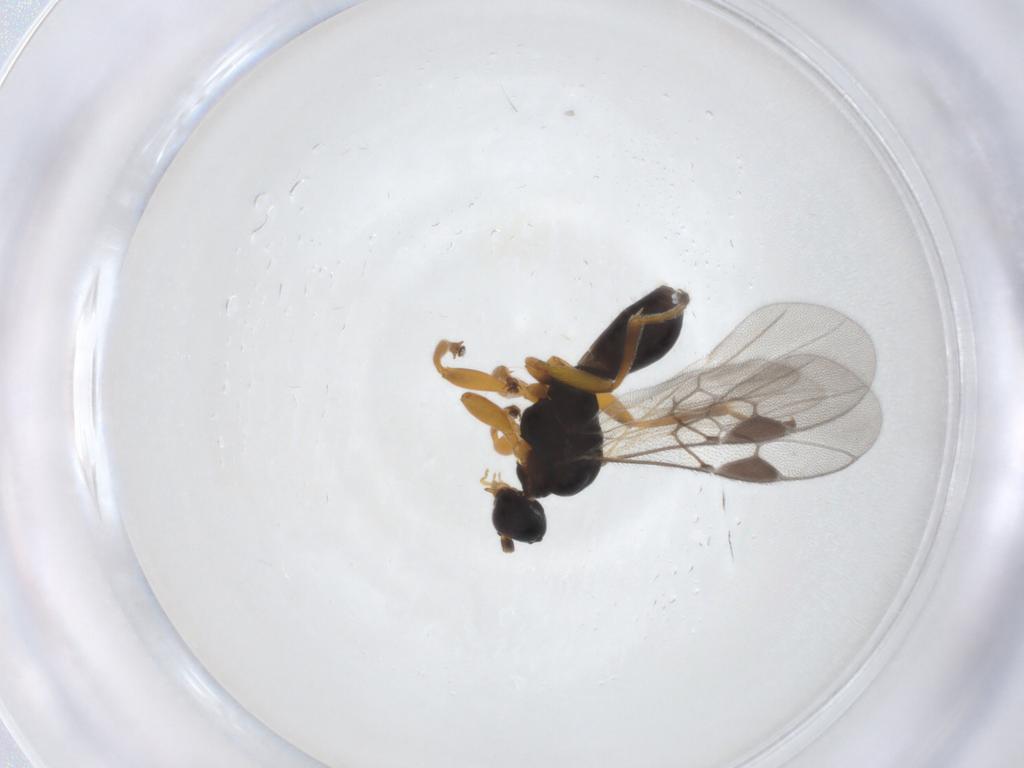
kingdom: Animalia
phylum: Arthropoda
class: Insecta
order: Hymenoptera
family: Braconidae
